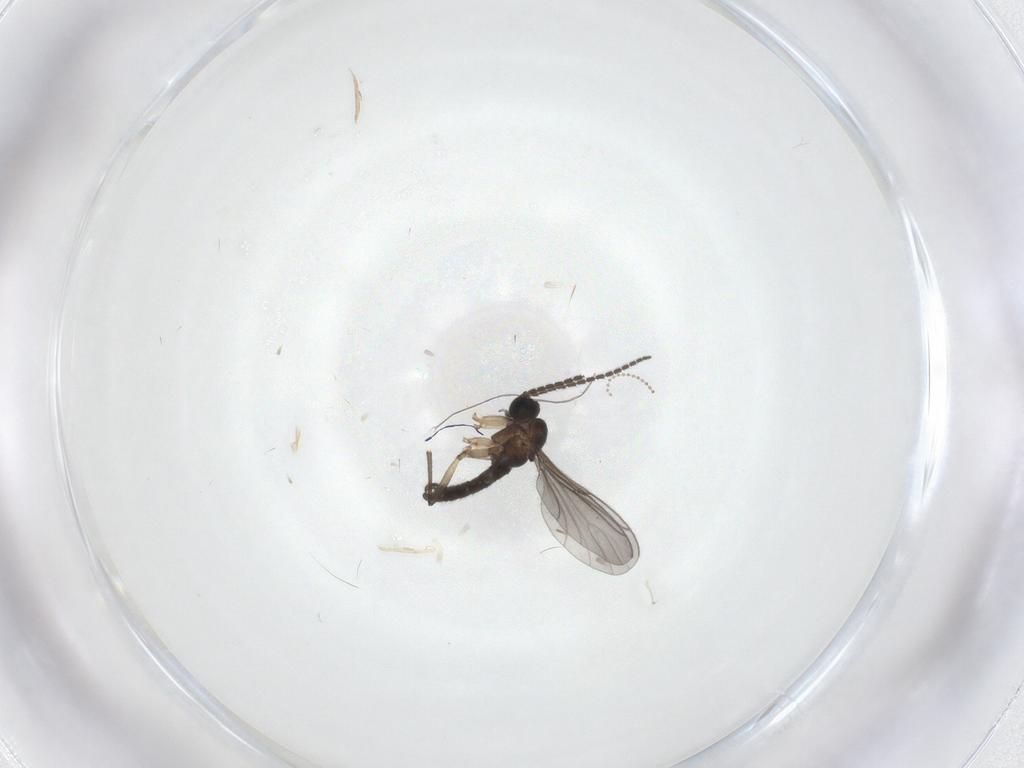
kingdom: Animalia
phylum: Arthropoda
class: Insecta
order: Diptera
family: Sciaridae
